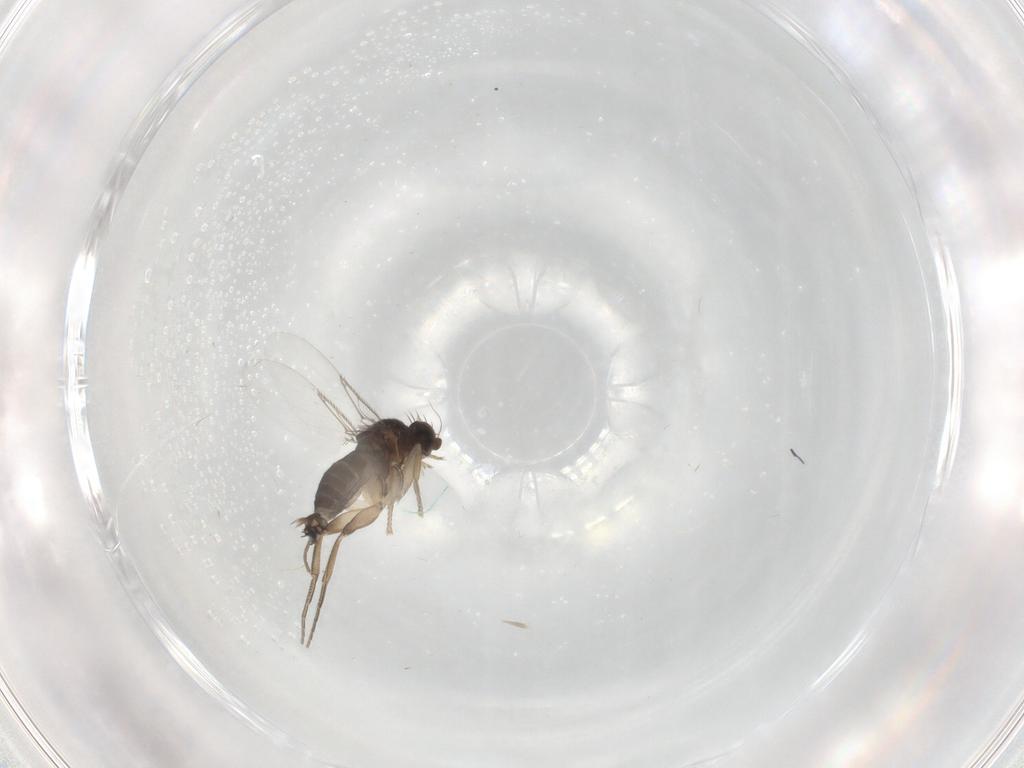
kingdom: Animalia
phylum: Arthropoda
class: Insecta
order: Diptera
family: Phoridae
